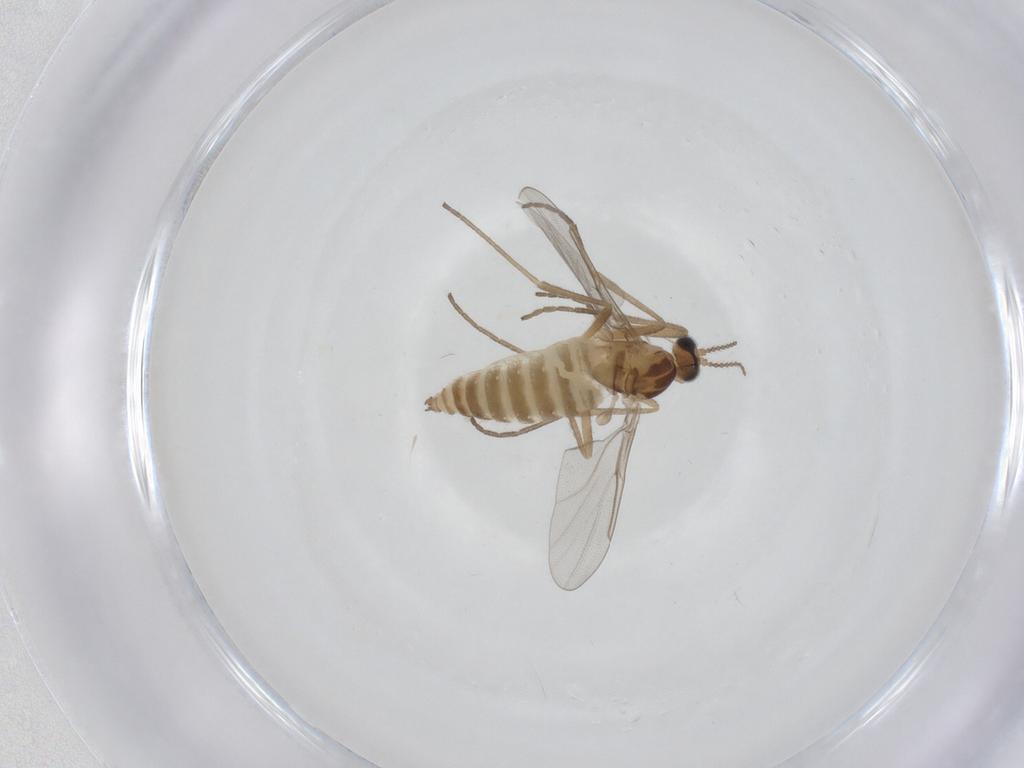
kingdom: Animalia
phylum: Arthropoda
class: Insecta
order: Diptera
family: Cecidomyiidae
